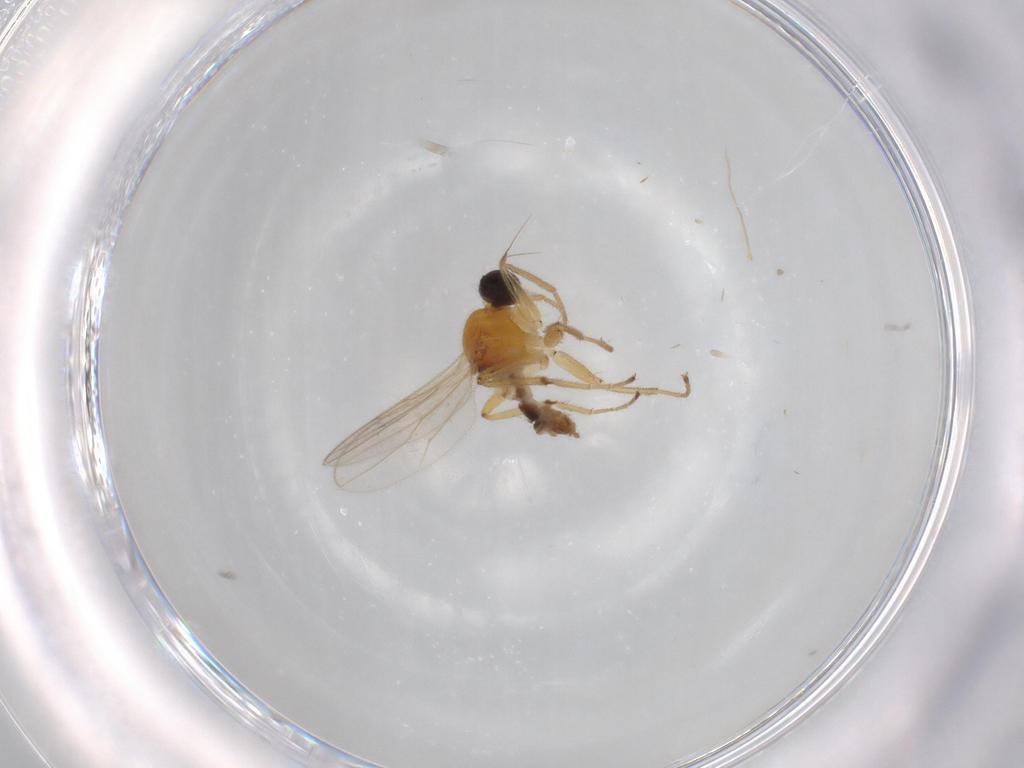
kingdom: Animalia
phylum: Arthropoda
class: Insecta
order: Diptera
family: Hybotidae
